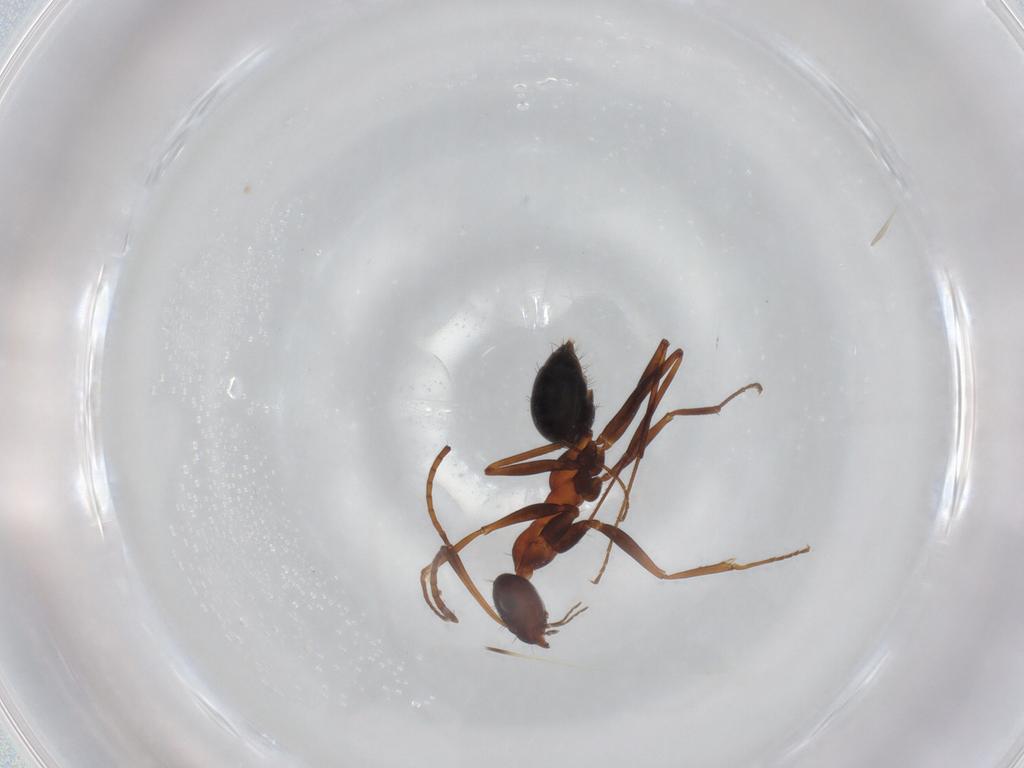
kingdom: Animalia
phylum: Arthropoda
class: Insecta
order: Hymenoptera
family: Formicidae
